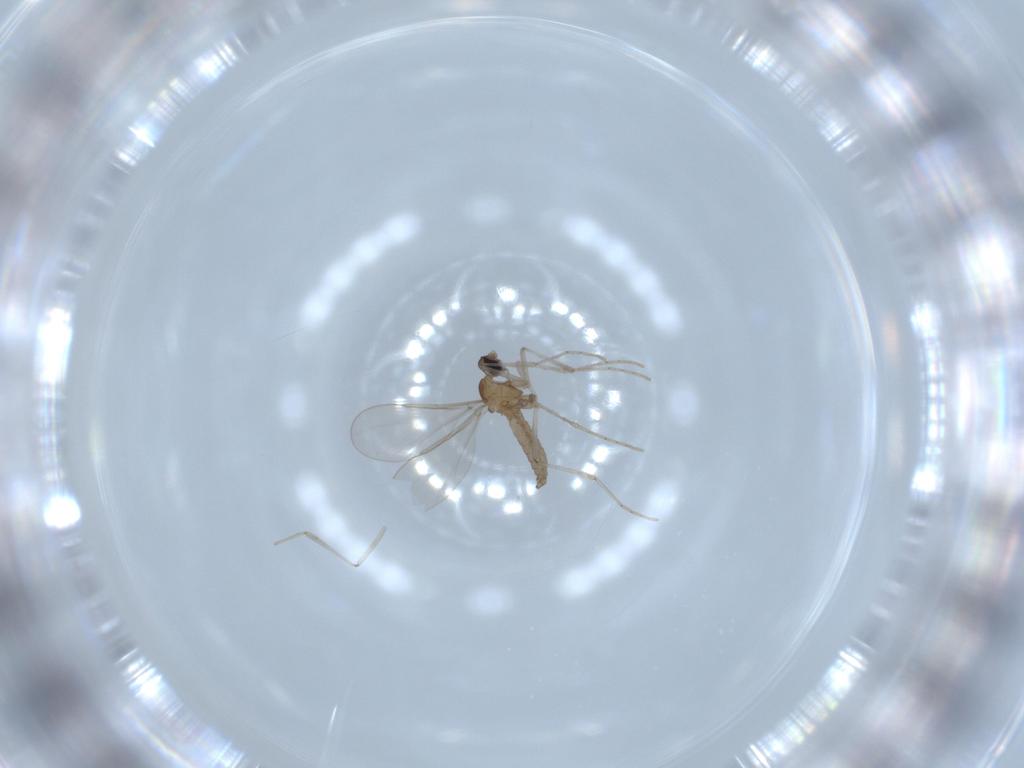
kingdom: Animalia
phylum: Arthropoda
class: Insecta
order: Diptera
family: Cecidomyiidae
